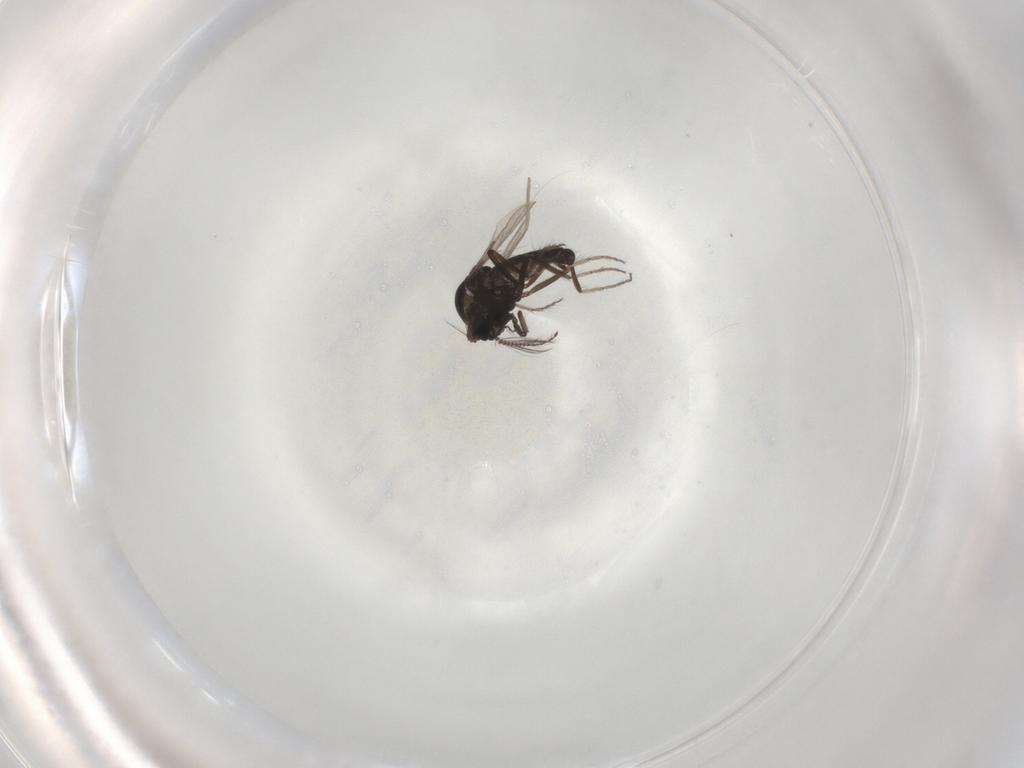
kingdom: Animalia
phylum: Arthropoda
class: Insecta
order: Diptera
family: Ceratopogonidae
